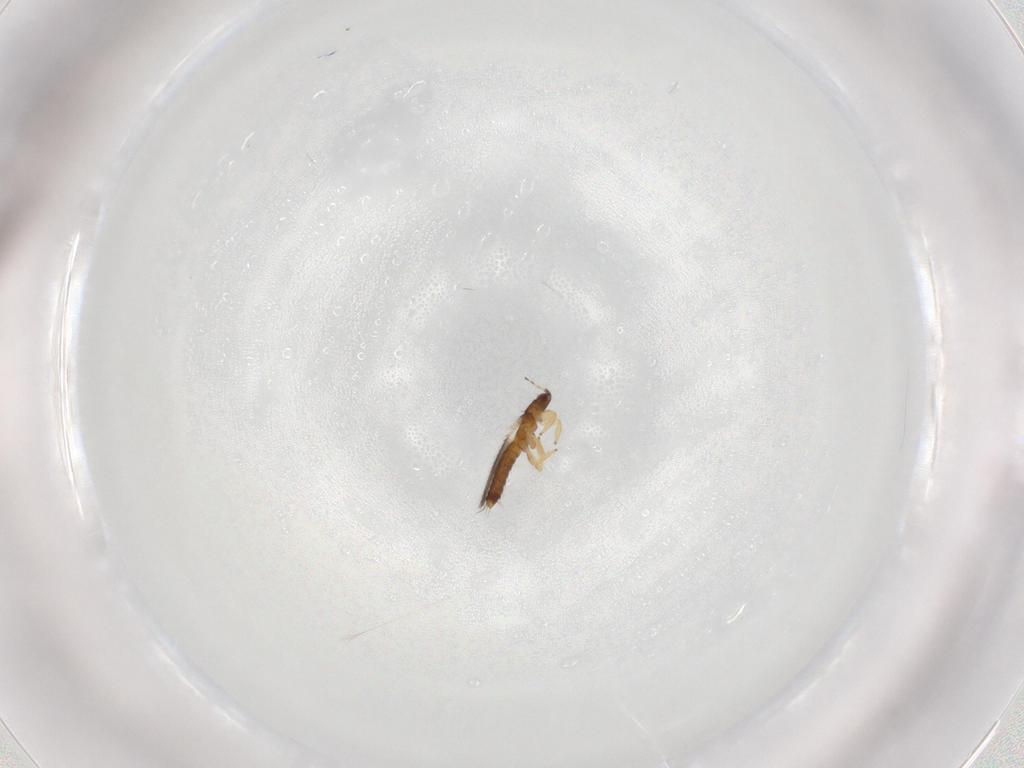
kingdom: Animalia
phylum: Arthropoda
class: Insecta
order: Thysanoptera
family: Thripidae
